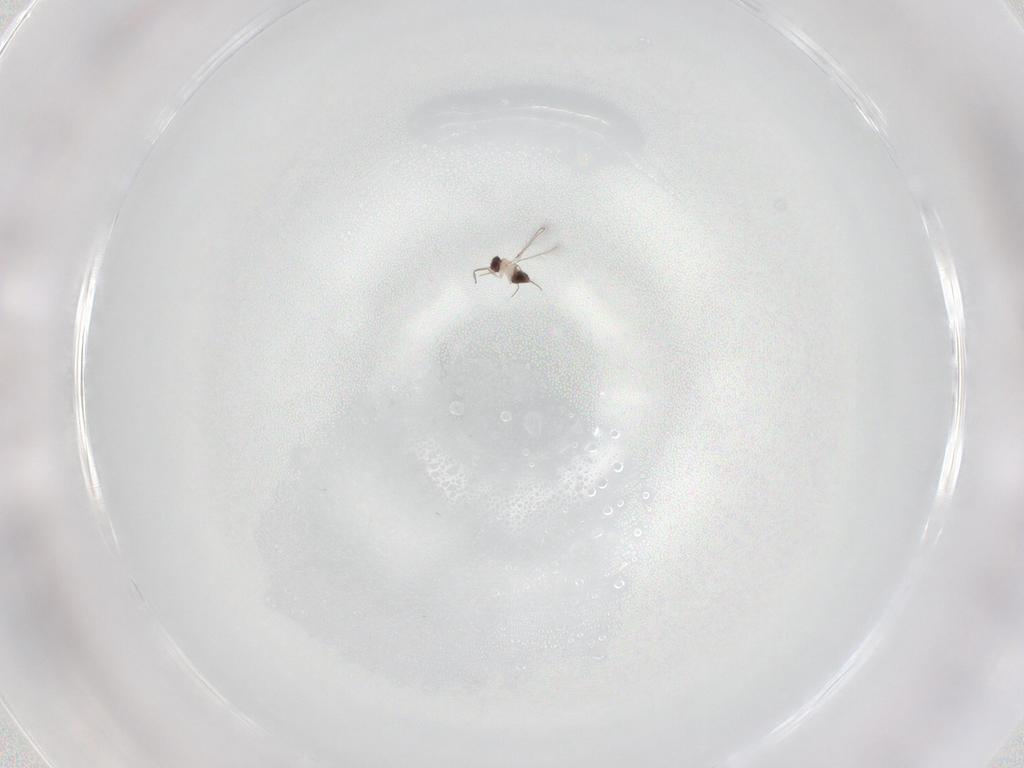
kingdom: Animalia
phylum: Arthropoda
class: Insecta
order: Hymenoptera
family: Mymaridae
